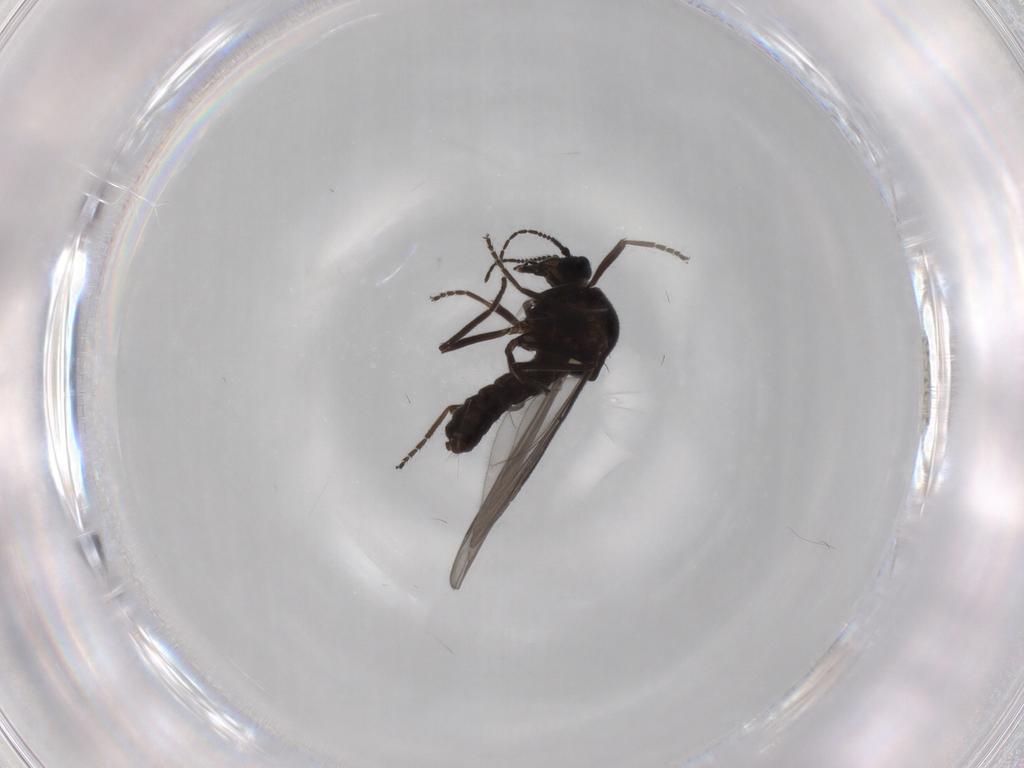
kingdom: Animalia
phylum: Arthropoda
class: Insecta
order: Diptera
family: Ceratopogonidae
